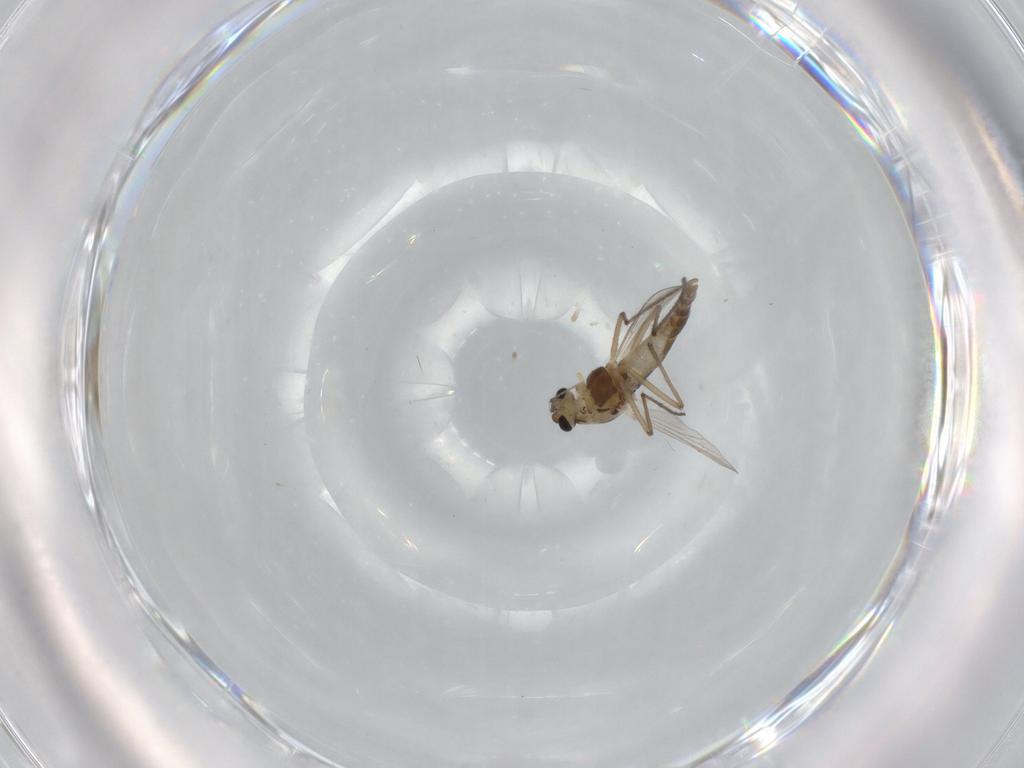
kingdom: Animalia
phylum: Arthropoda
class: Insecta
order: Diptera
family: Chironomidae
